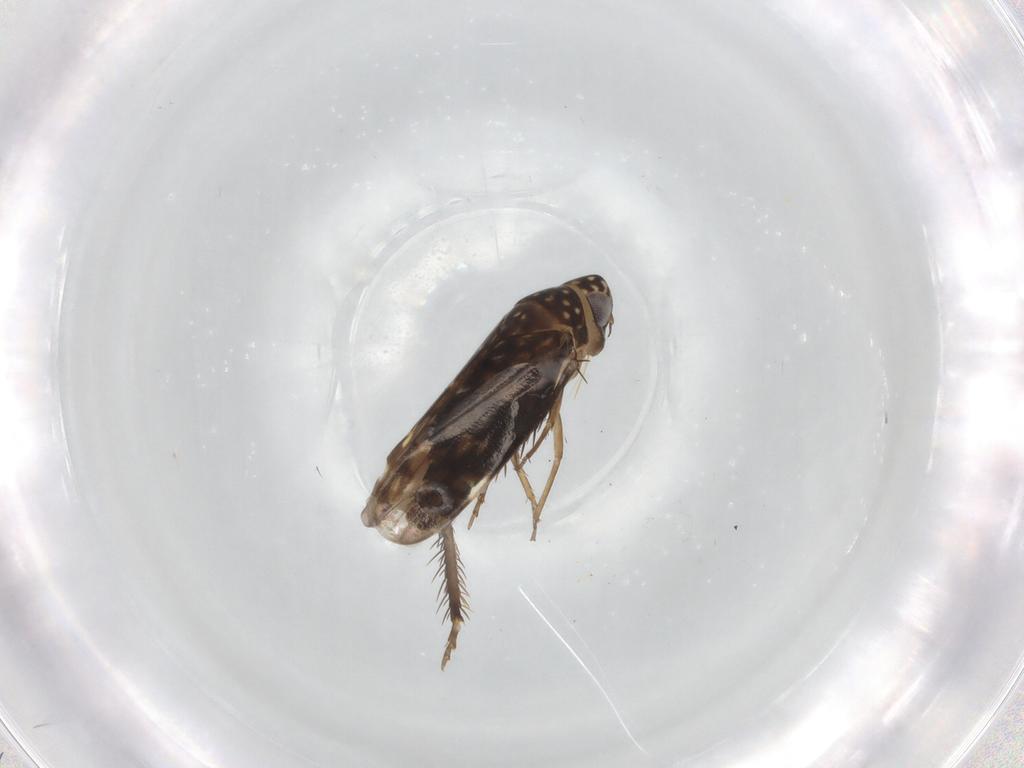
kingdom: Animalia
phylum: Arthropoda
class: Insecta
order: Hemiptera
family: Cicadellidae
